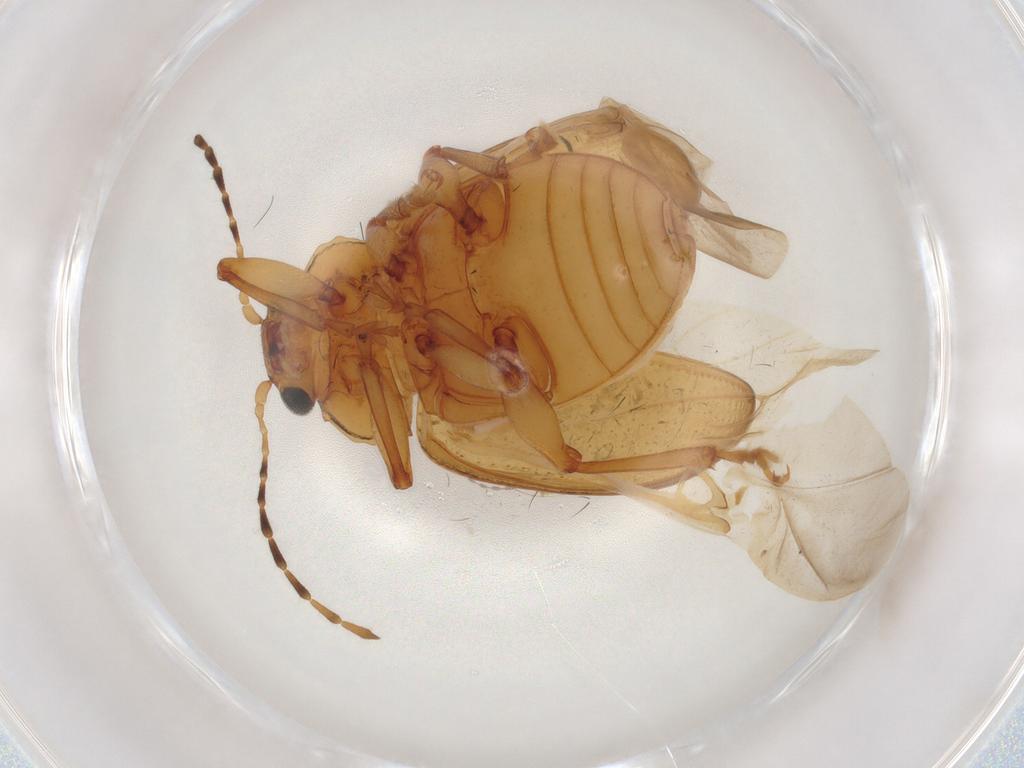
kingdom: Animalia
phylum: Arthropoda
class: Insecta
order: Coleoptera
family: Chrysomelidae
